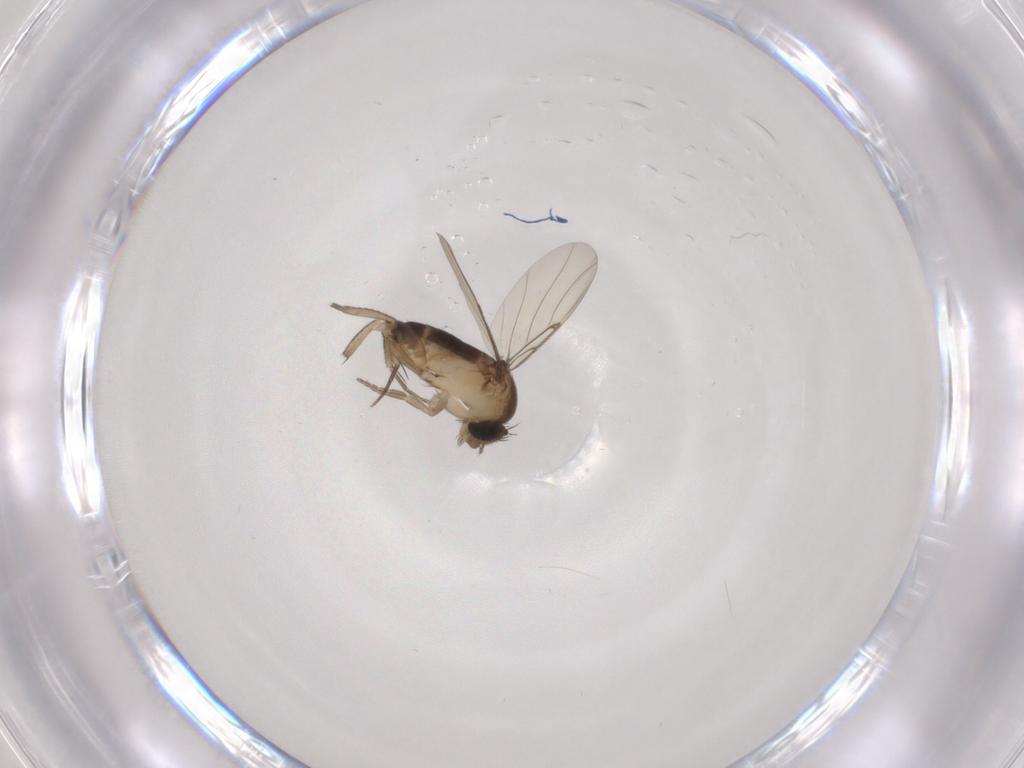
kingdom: Animalia
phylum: Arthropoda
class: Insecta
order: Diptera
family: Phoridae
